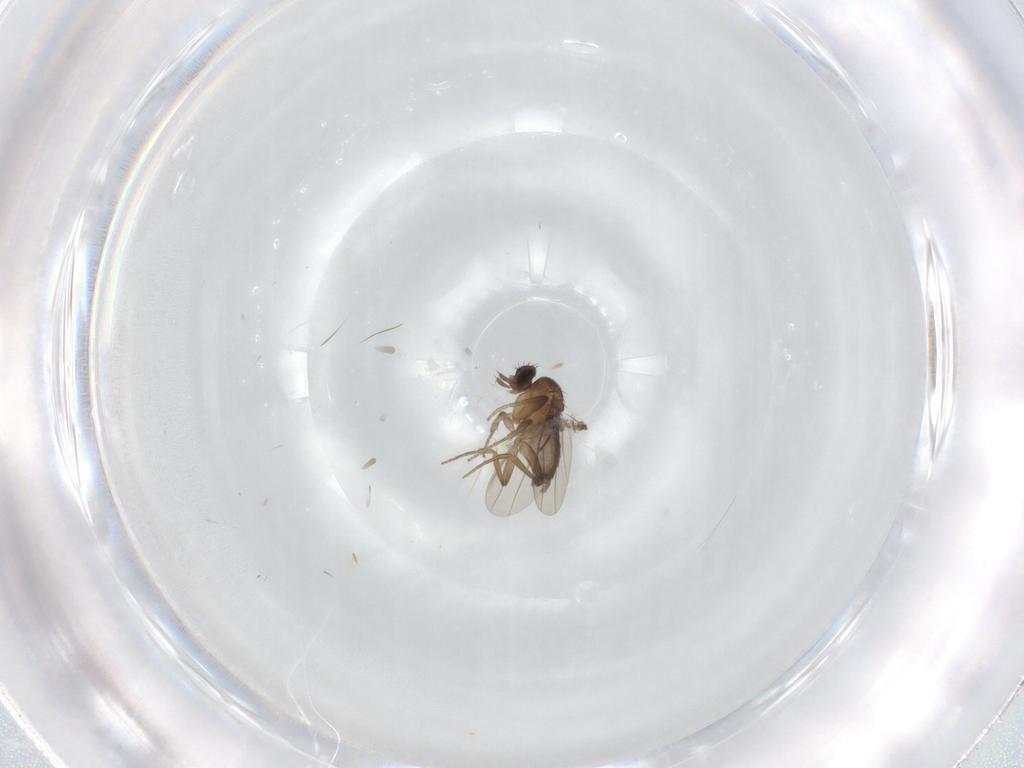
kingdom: Animalia
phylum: Arthropoda
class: Insecta
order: Diptera
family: Phoridae
